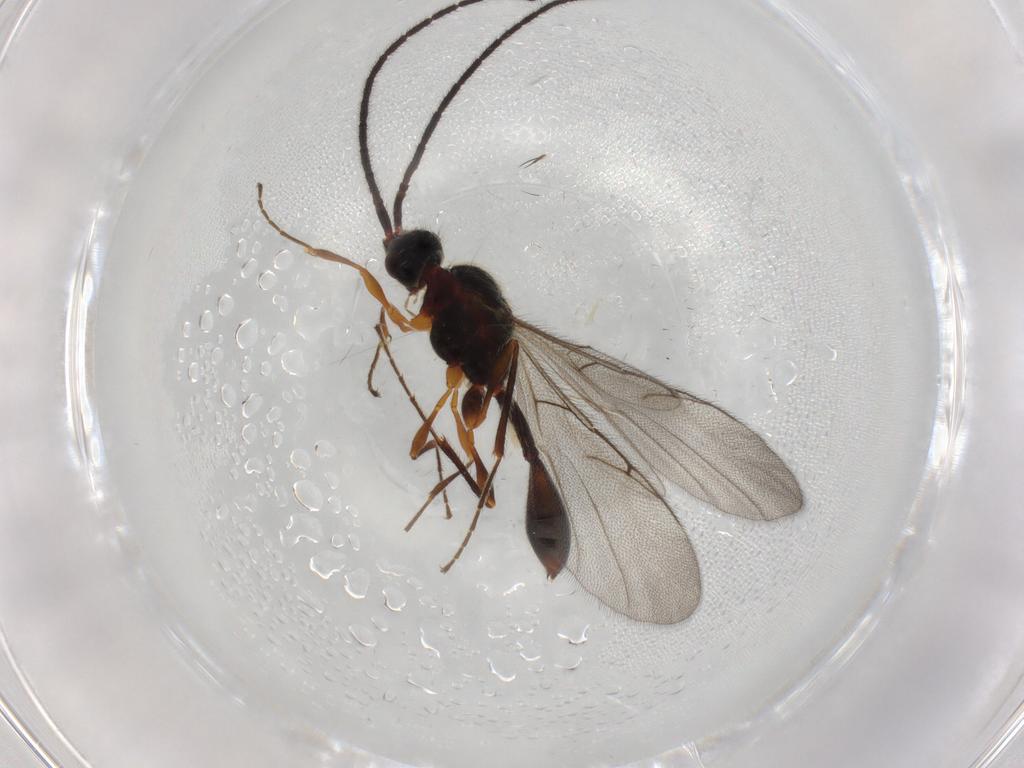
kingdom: Animalia
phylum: Arthropoda
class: Insecta
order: Hymenoptera
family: Diapriidae
